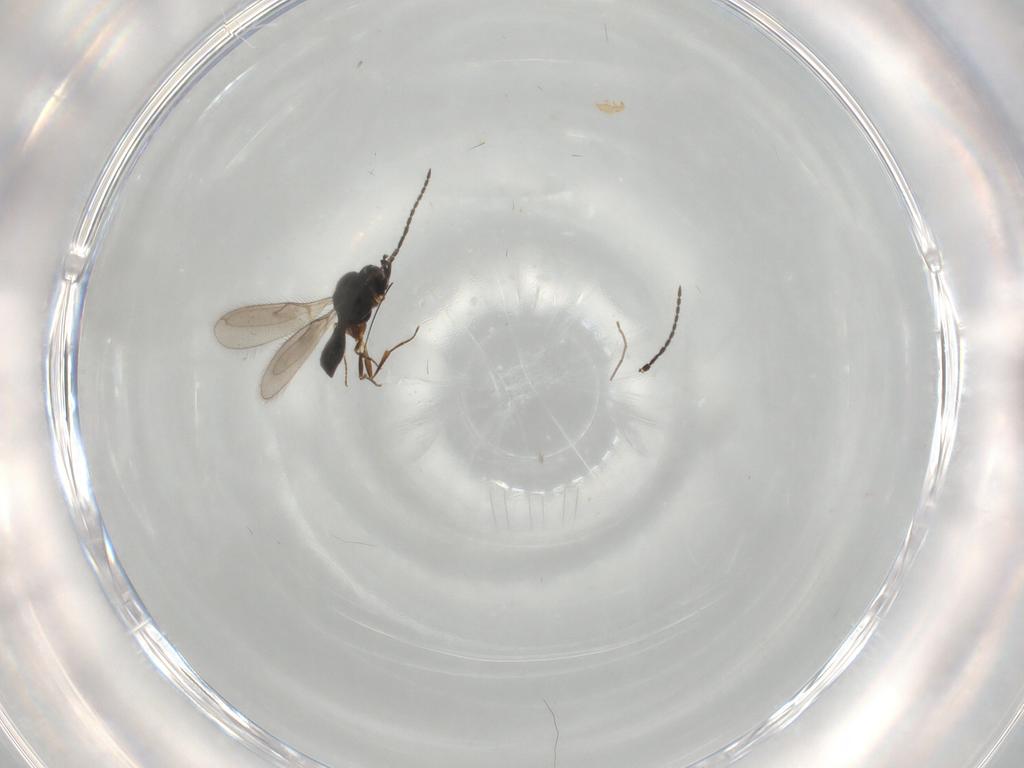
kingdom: Animalia
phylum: Arthropoda
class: Insecta
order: Hymenoptera
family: Scelionidae
